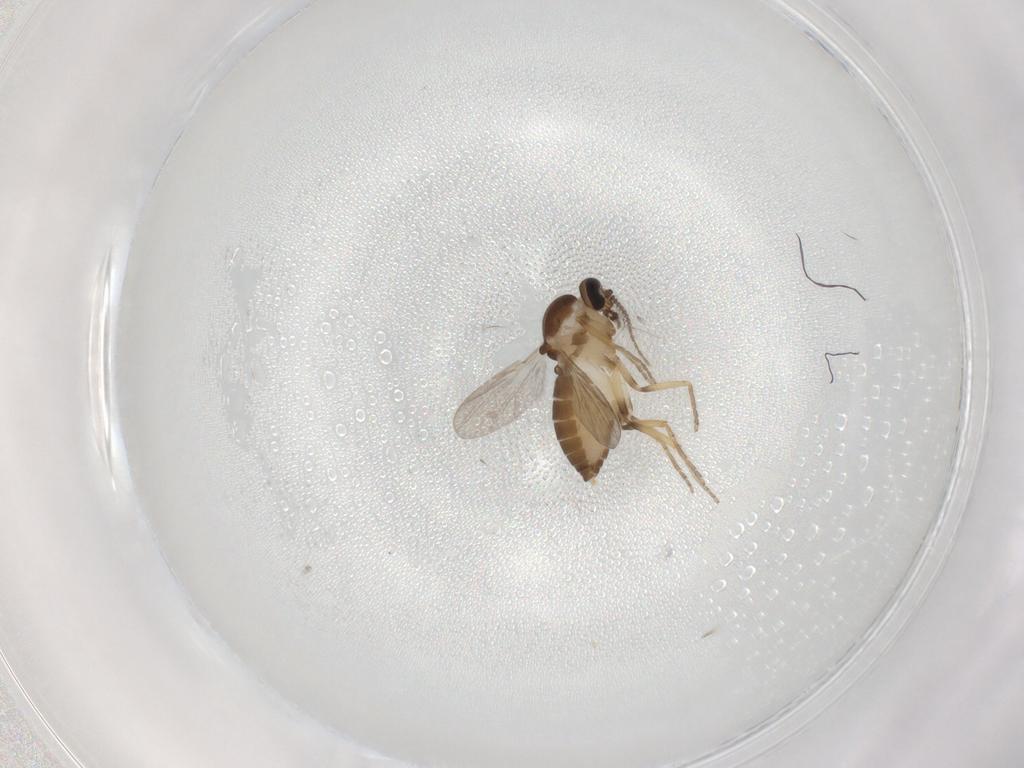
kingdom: Animalia
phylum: Arthropoda
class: Insecta
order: Diptera
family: Ceratopogonidae
